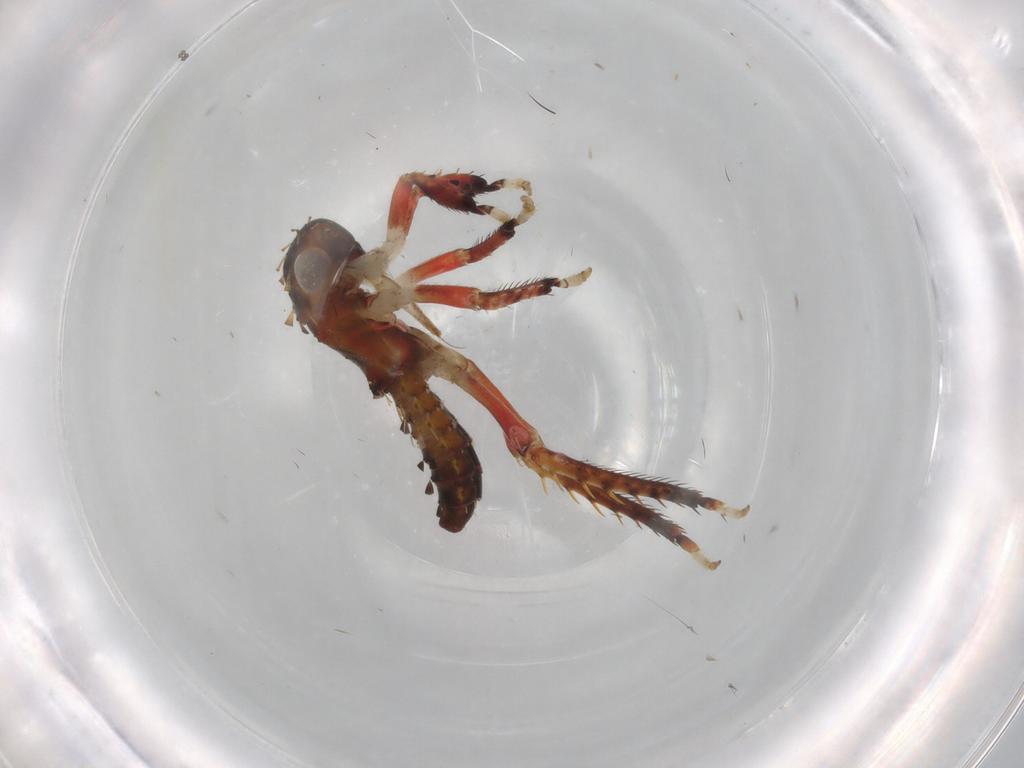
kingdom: Animalia
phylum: Arthropoda
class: Insecta
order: Hemiptera
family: Cicadellidae
